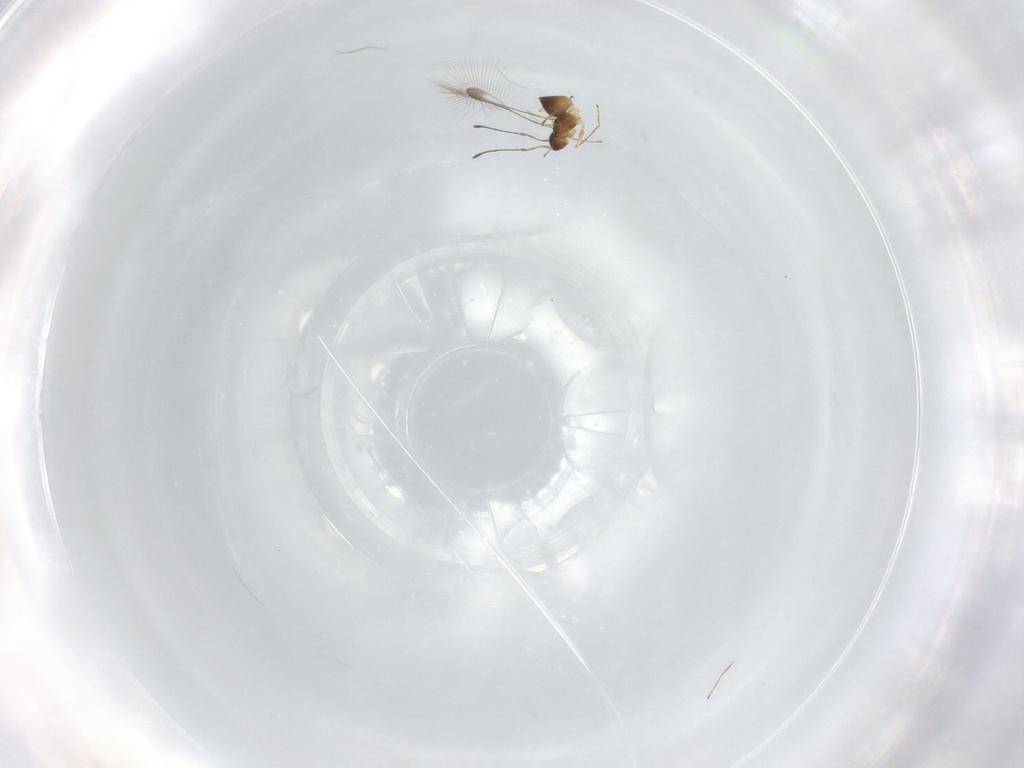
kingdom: Animalia
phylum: Arthropoda
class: Insecta
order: Hymenoptera
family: Mymaridae
